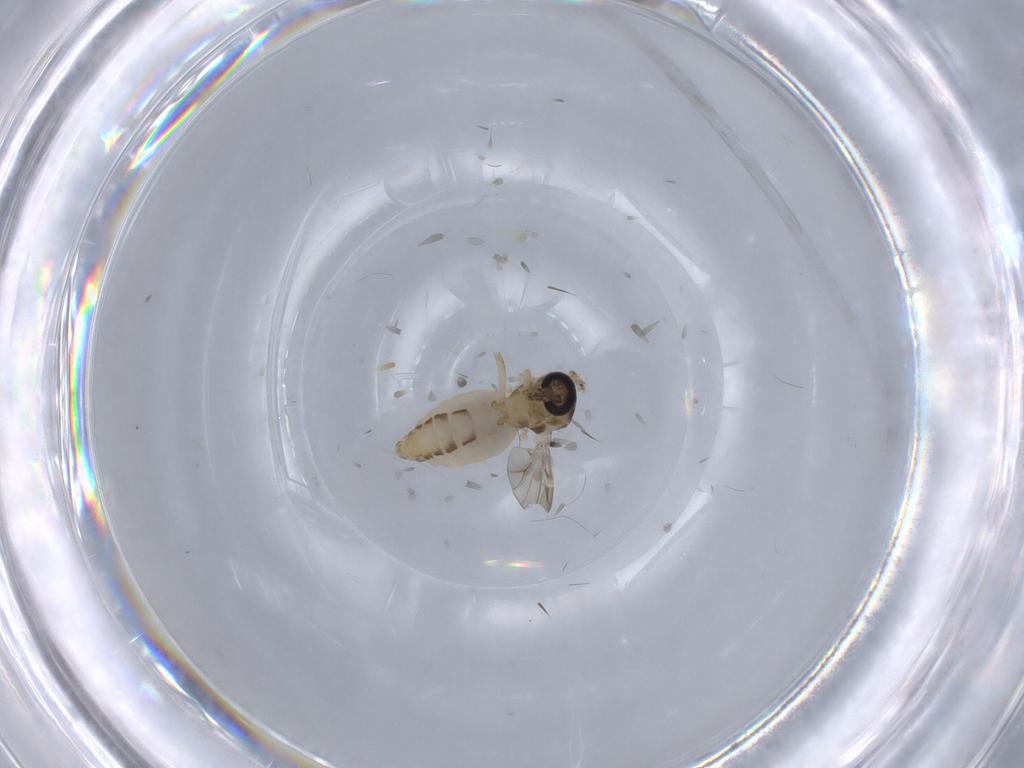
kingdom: Animalia
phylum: Arthropoda
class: Insecta
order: Diptera
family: Ceratopogonidae
